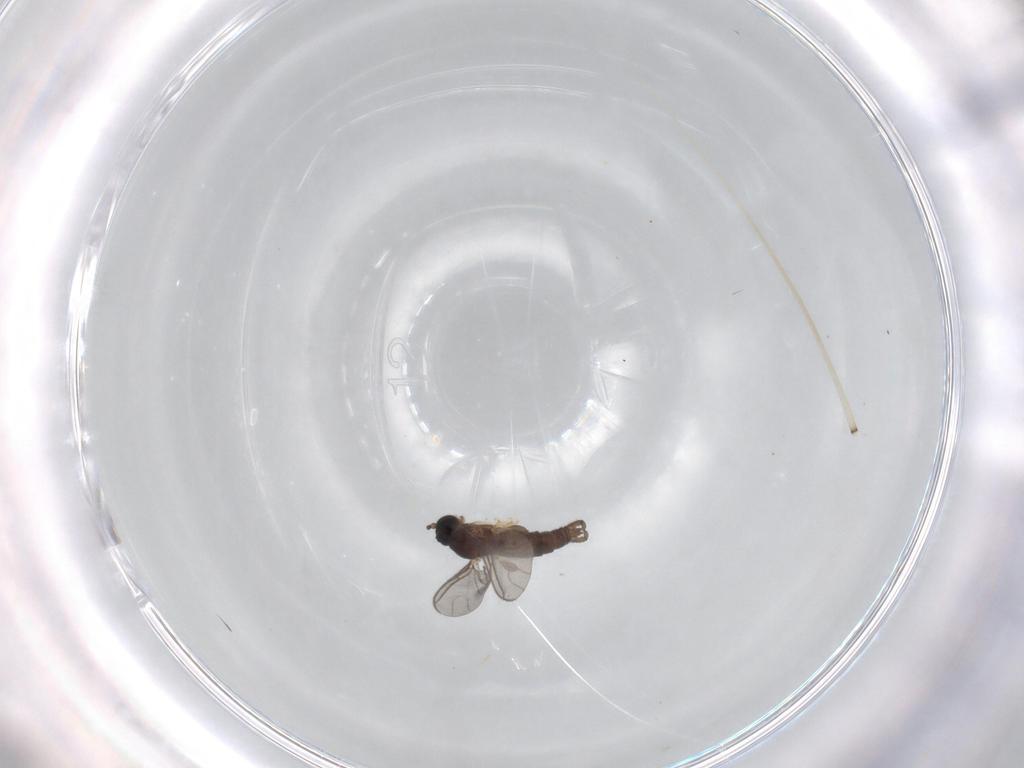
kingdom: Animalia
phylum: Arthropoda
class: Insecta
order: Diptera
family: Sciaridae
